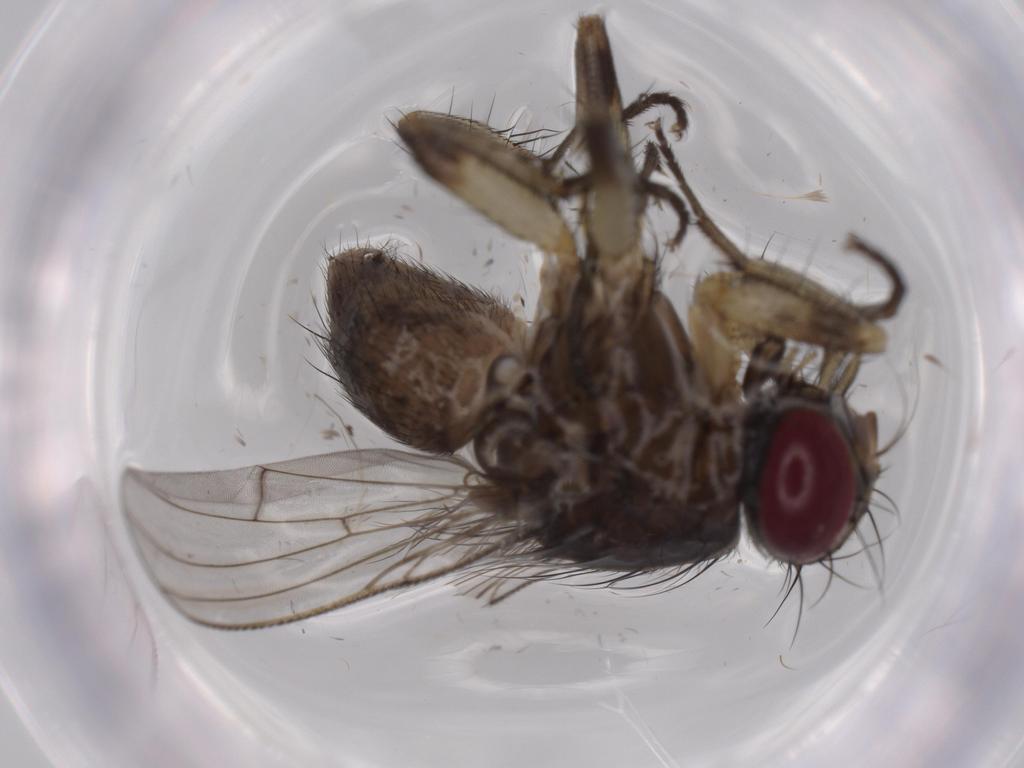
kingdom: Animalia
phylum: Arthropoda
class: Insecta
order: Diptera
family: Muscidae
